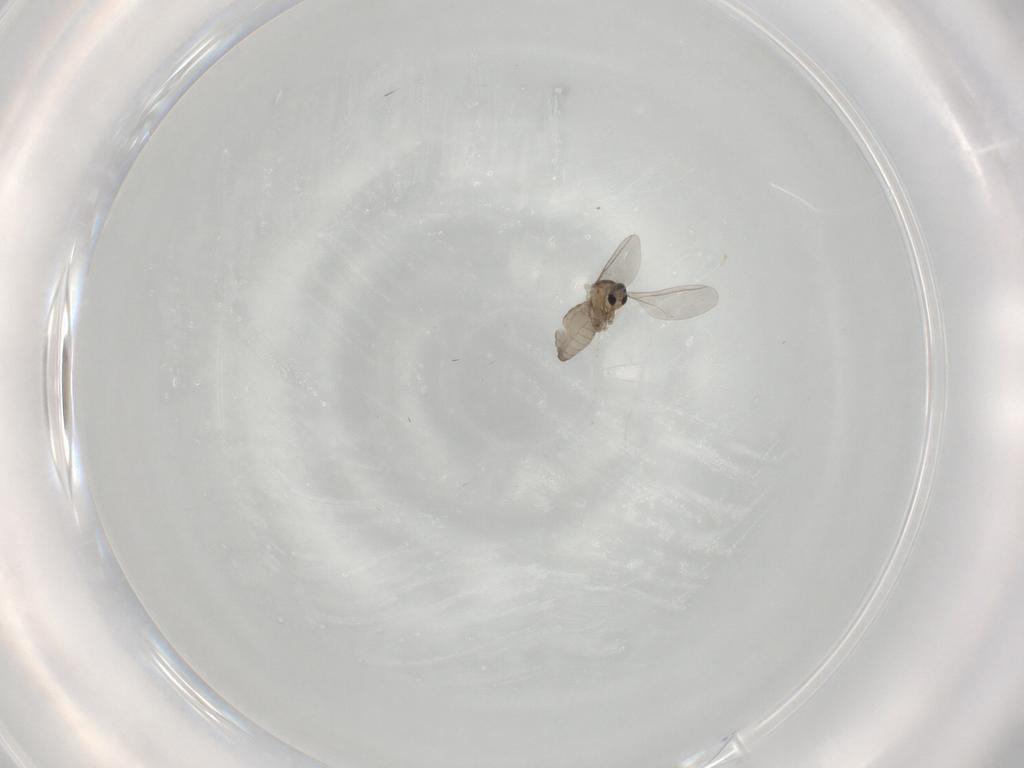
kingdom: Animalia
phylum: Arthropoda
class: Insecta
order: Diptera
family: Cecidomyiidae
